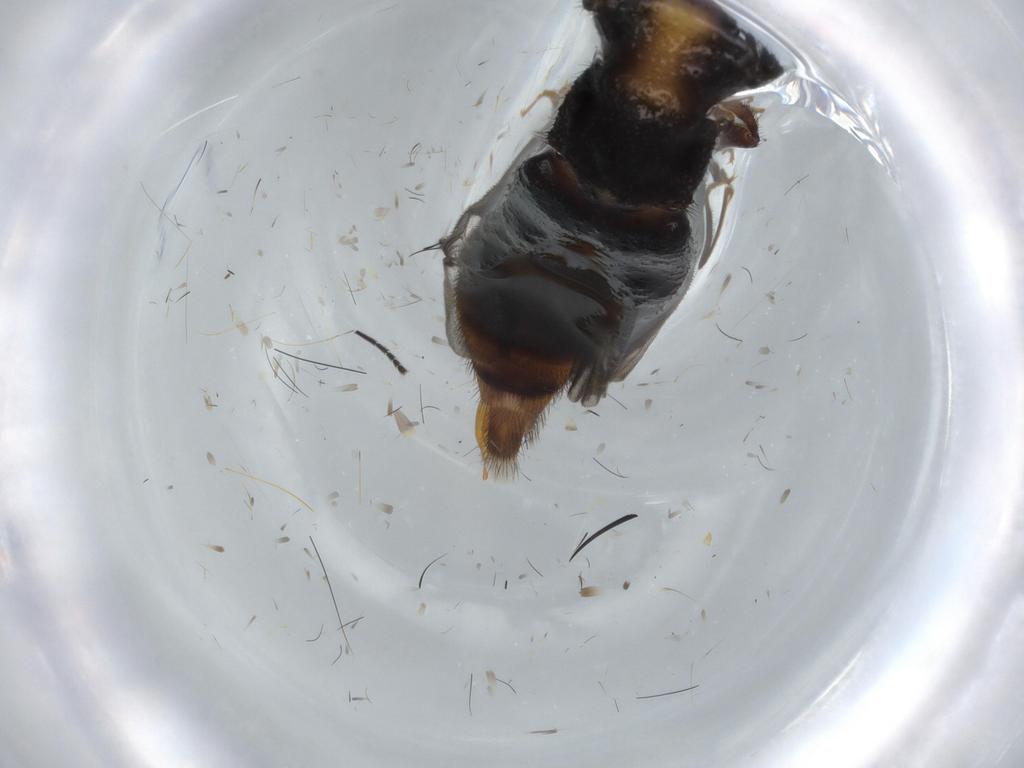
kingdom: Animalia
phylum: Arthropoda
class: Insecta
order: Coleoptera
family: Phengodidae
